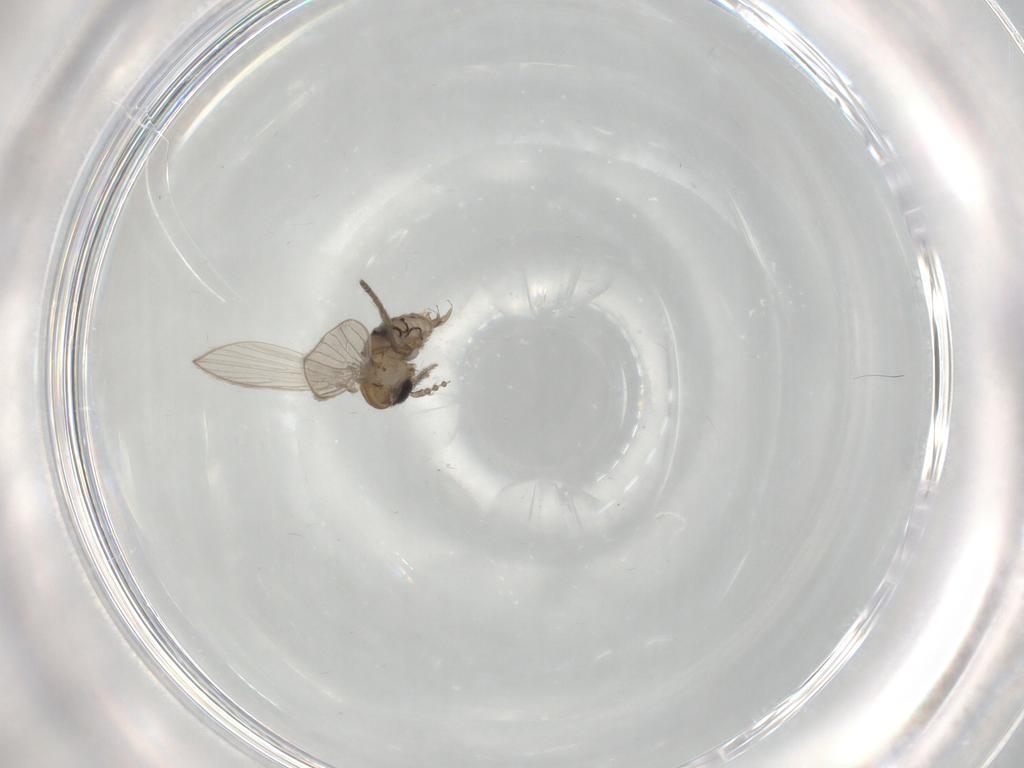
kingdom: Animalia
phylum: Arthropoda
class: Insecta
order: Diptera
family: Psychodidae
